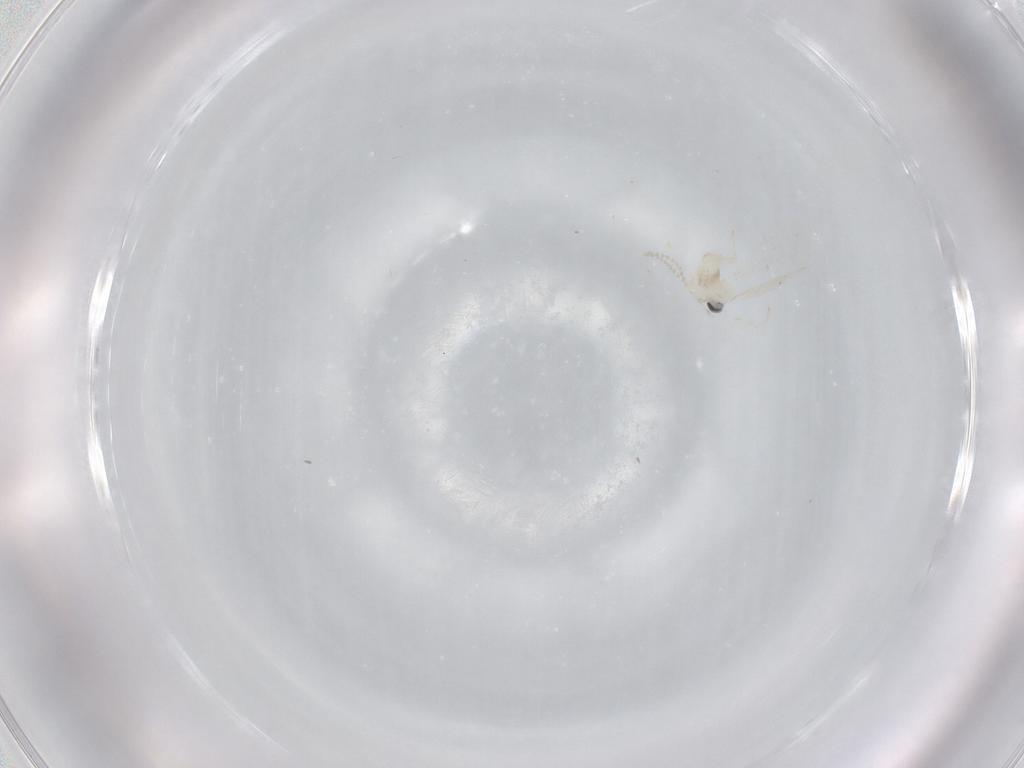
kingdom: Animalia
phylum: Arthropoda
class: Insecta
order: Diptera
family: Cecidomyiidae
